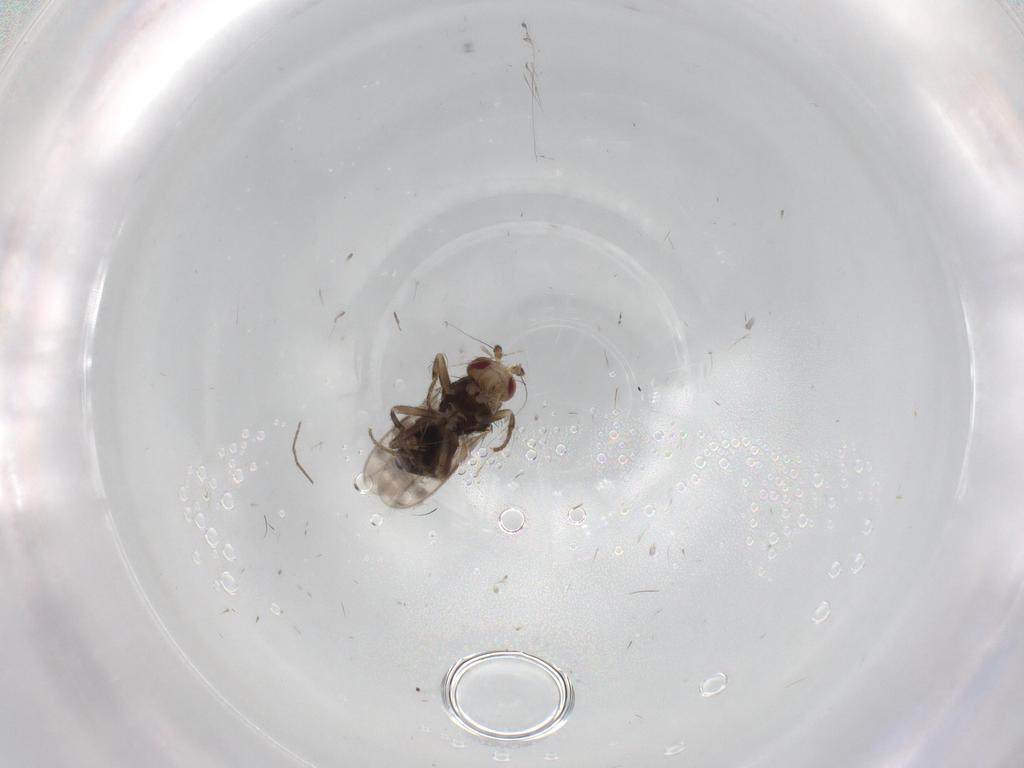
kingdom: Animalia
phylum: Arthropoda
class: Insecta
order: Diptera
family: Sphaeroceridae
